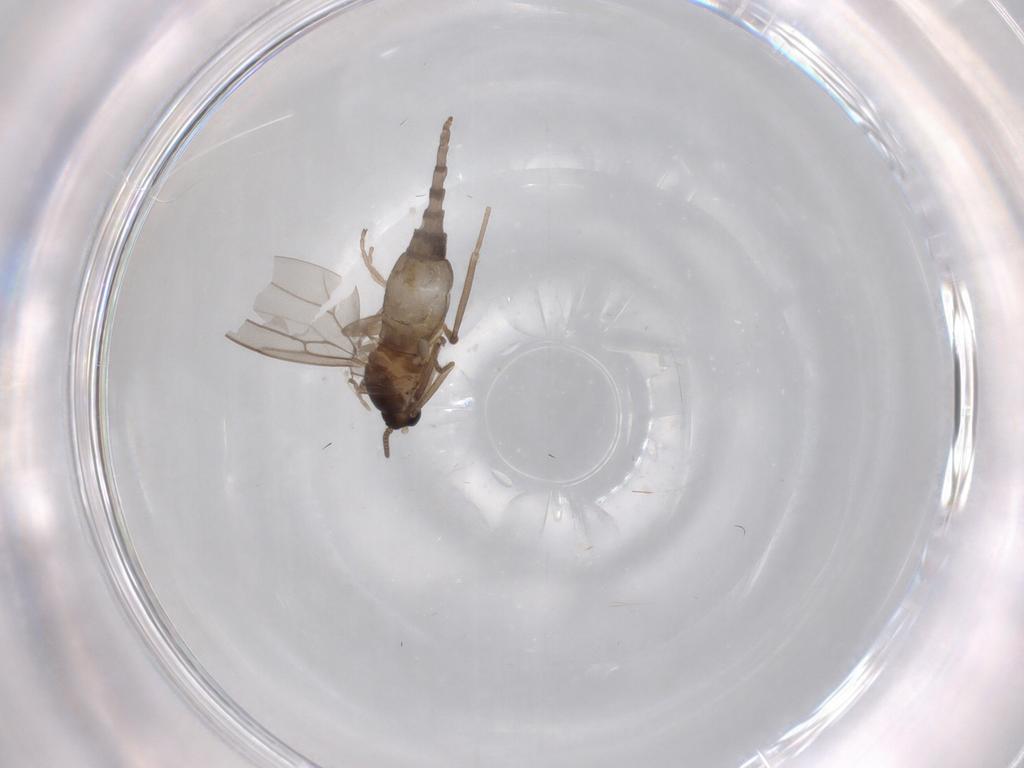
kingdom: Animalia
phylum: Arthropoda
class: Insecta
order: Diptera
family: Cecidomyiidae
